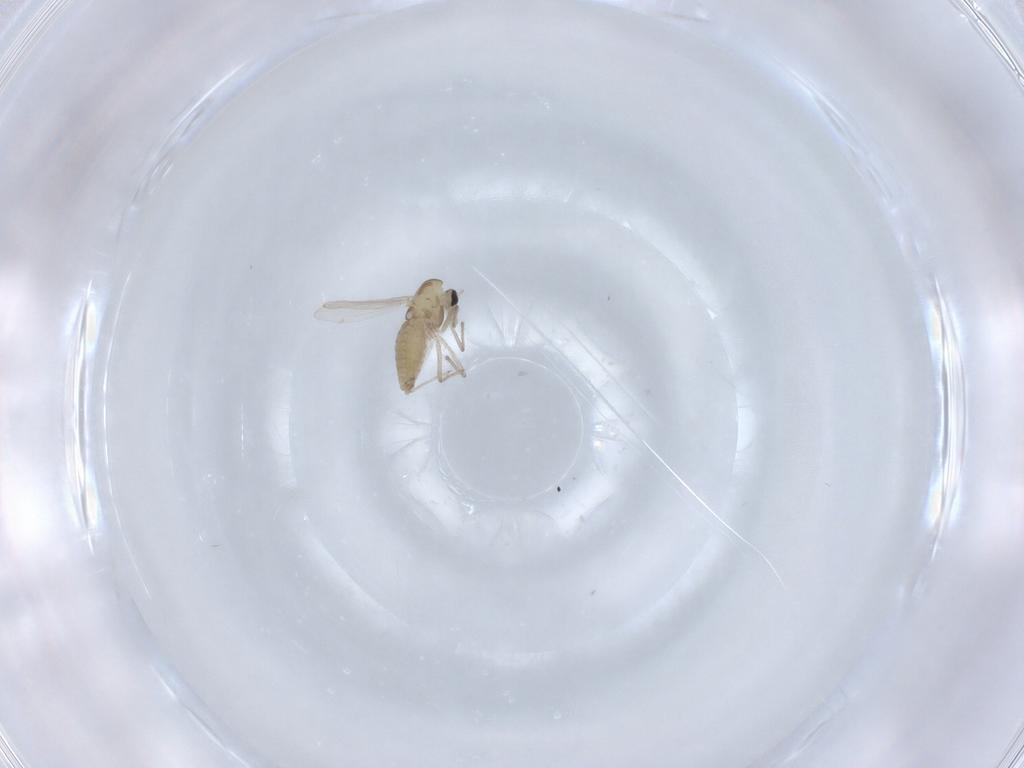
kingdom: Animalia
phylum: Arthropoda
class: Insecta
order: Diptera
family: Chironomidae
